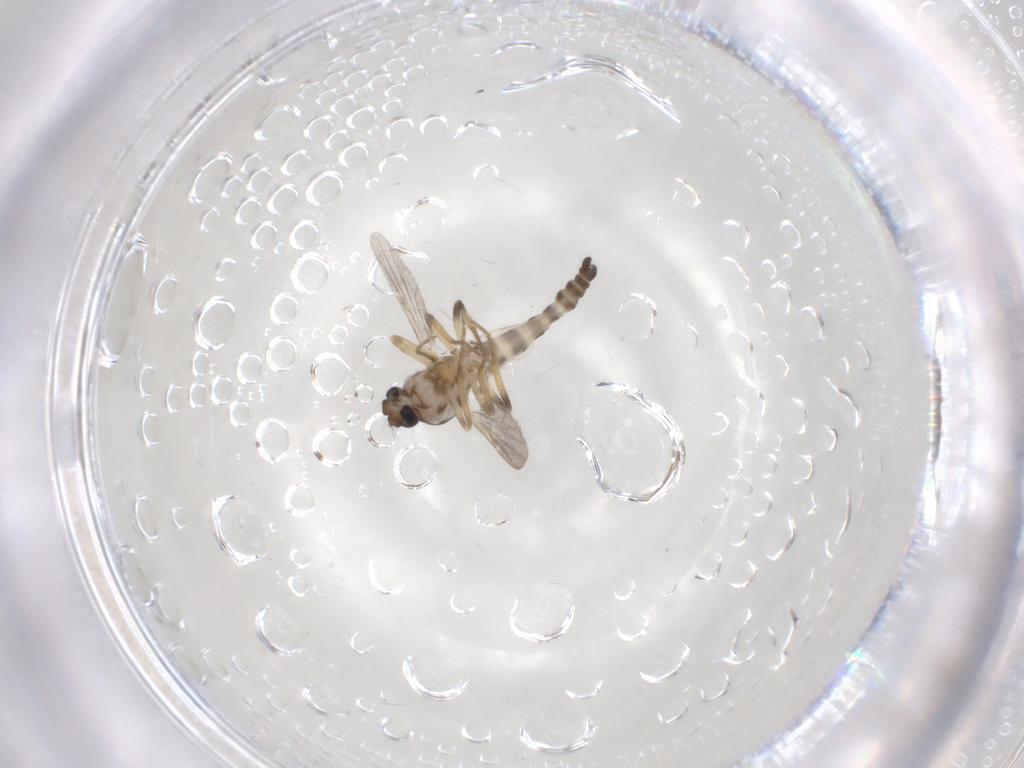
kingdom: Animalia
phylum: Arthropoda
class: Insecta
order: Diptera
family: Ceratopogonidae
